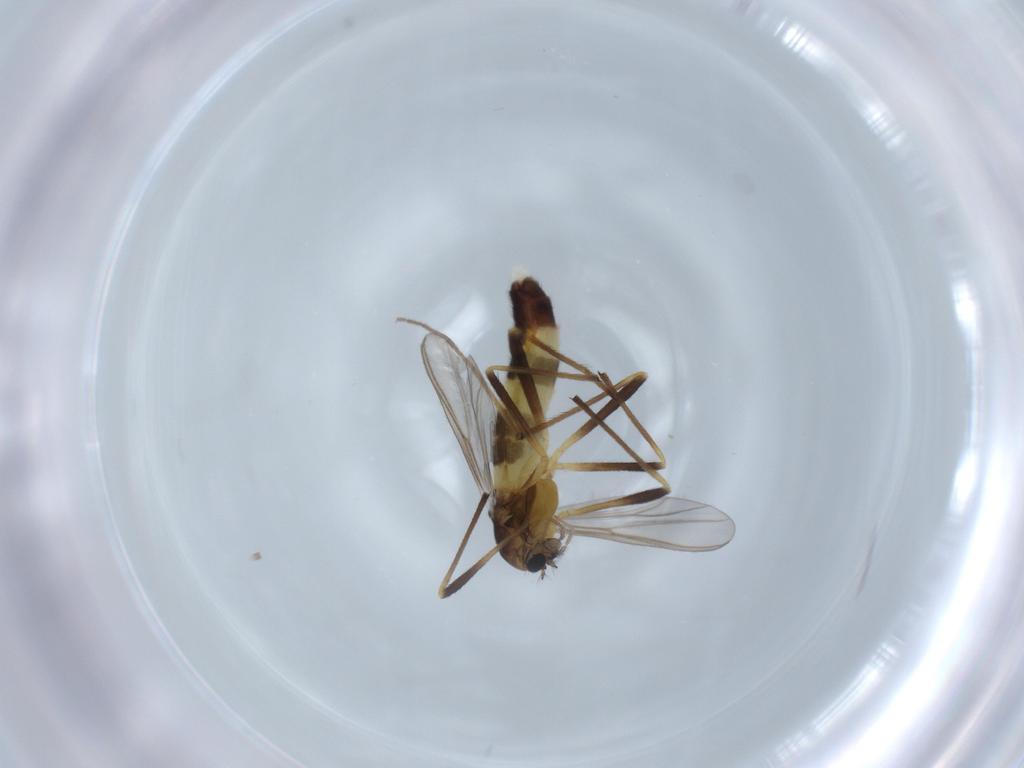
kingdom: Animalia
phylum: Arthropoda
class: Insecta
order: Diptera
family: Chironomidae
